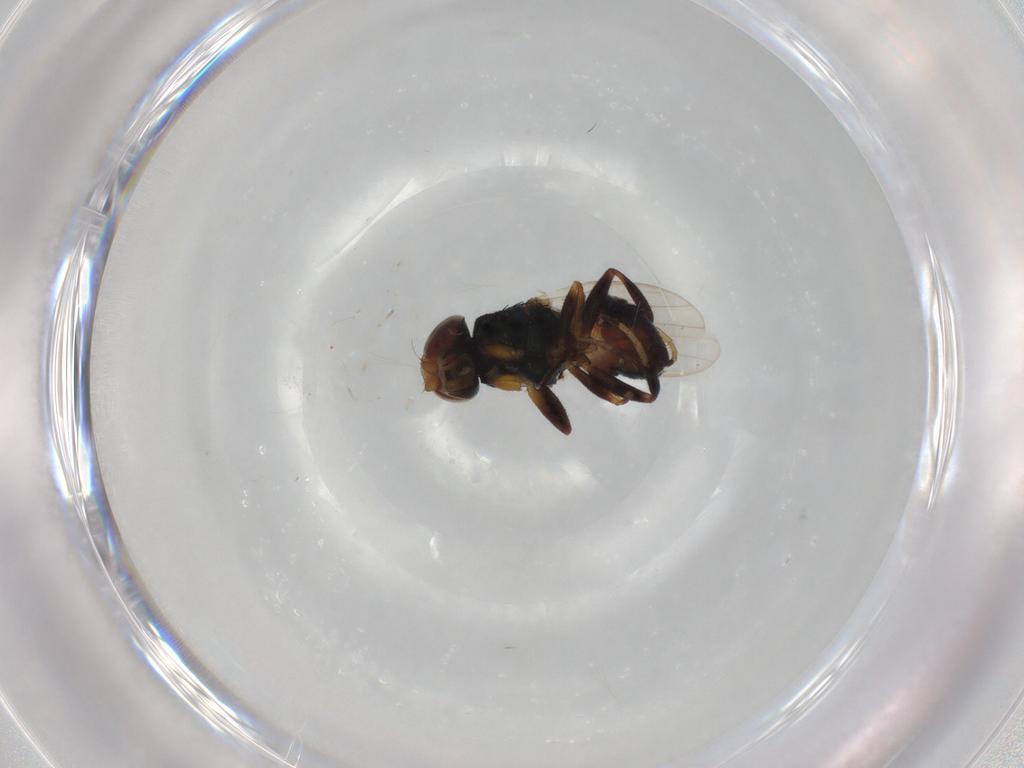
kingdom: Animalia
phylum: Arthropoda
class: Insecta
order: Diptera
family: Chloropidae
